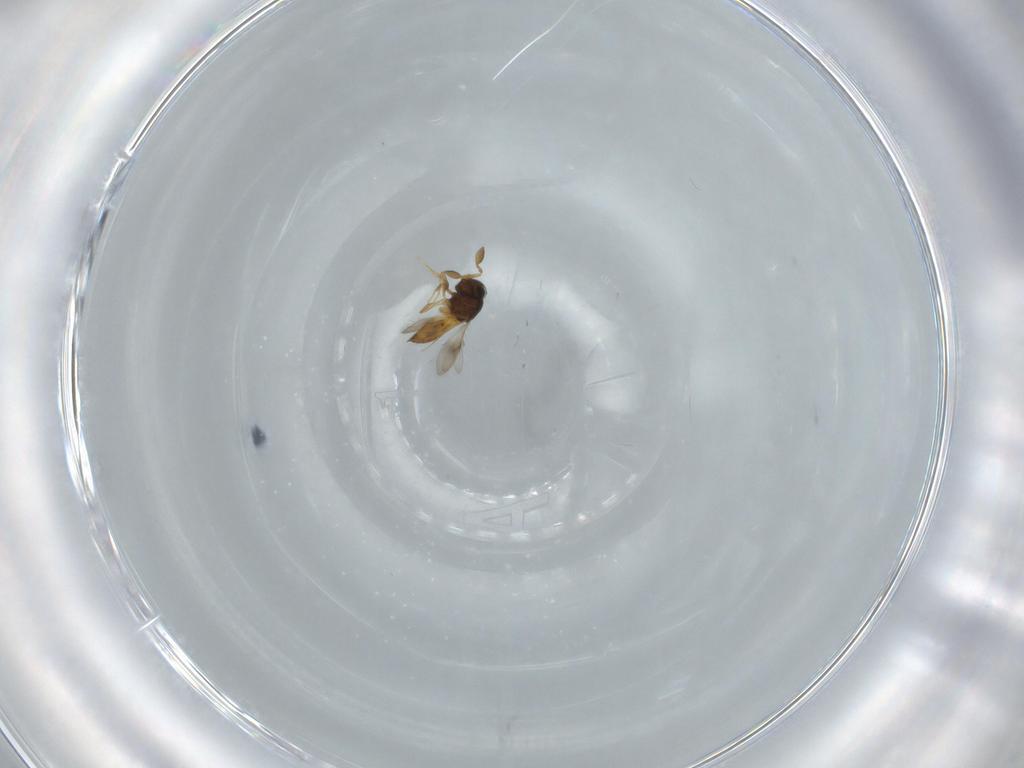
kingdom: Animalia
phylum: Arthropoda
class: Insecta
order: Hymenoptera
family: Scelionidae
